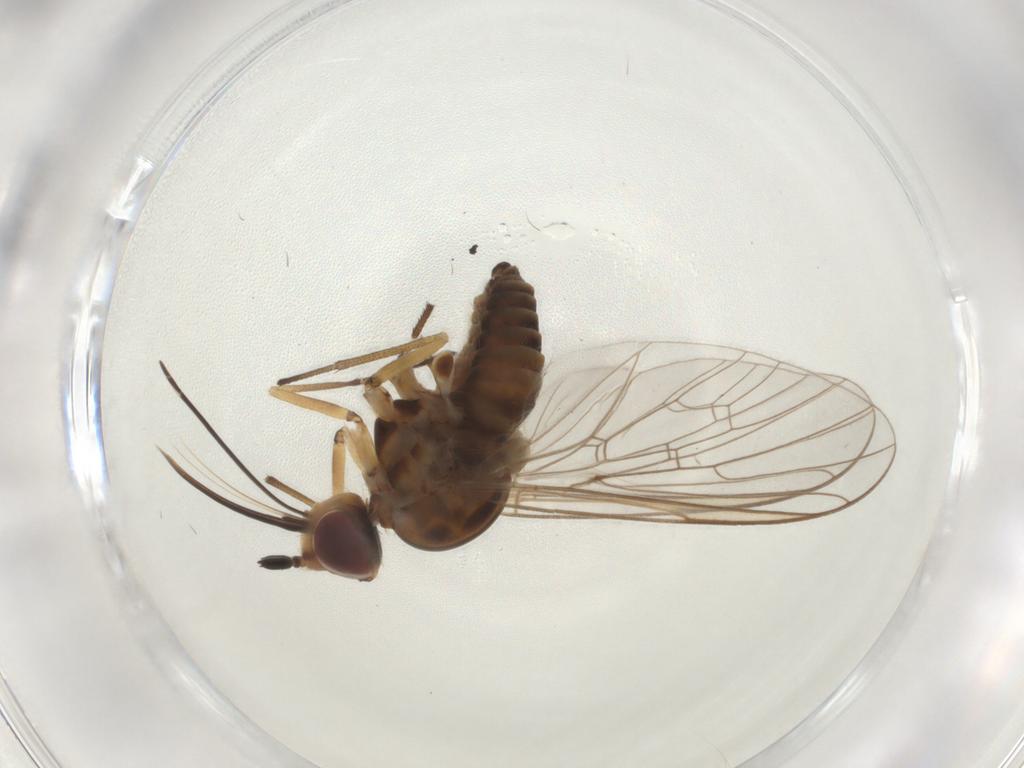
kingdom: Animalia
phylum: Arthropoda
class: Insecta
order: Diptera
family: Bombyliidae
